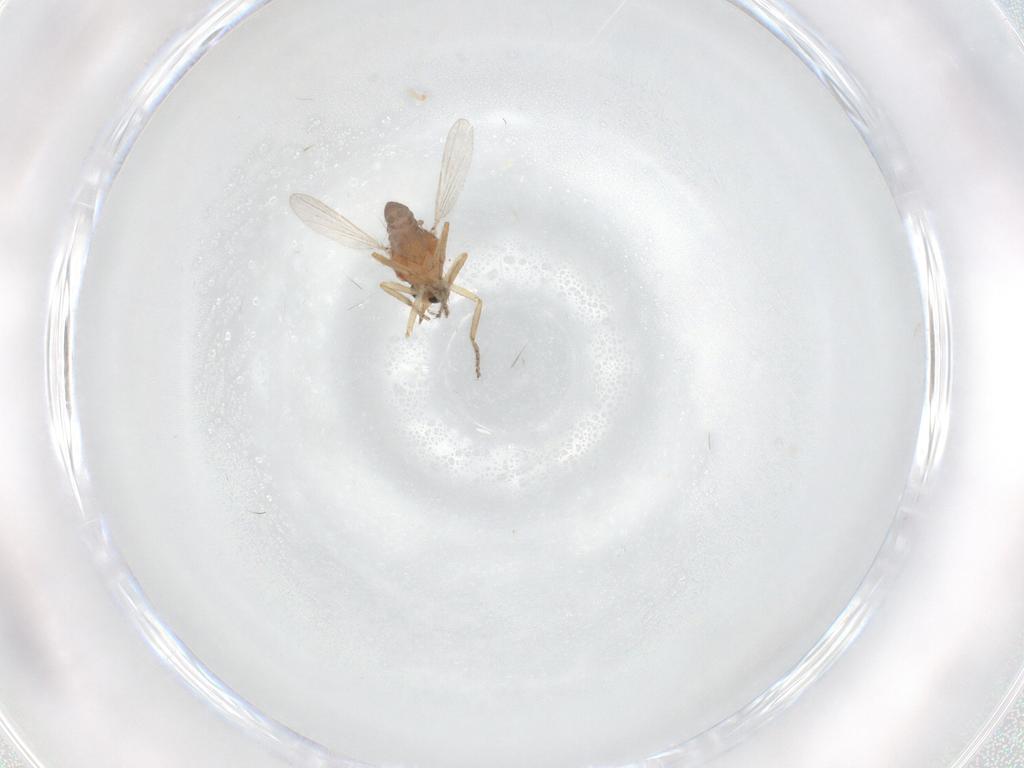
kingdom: Animalia
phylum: Arthropoda
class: Insecta
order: Diptera
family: Ceratopogonidae
